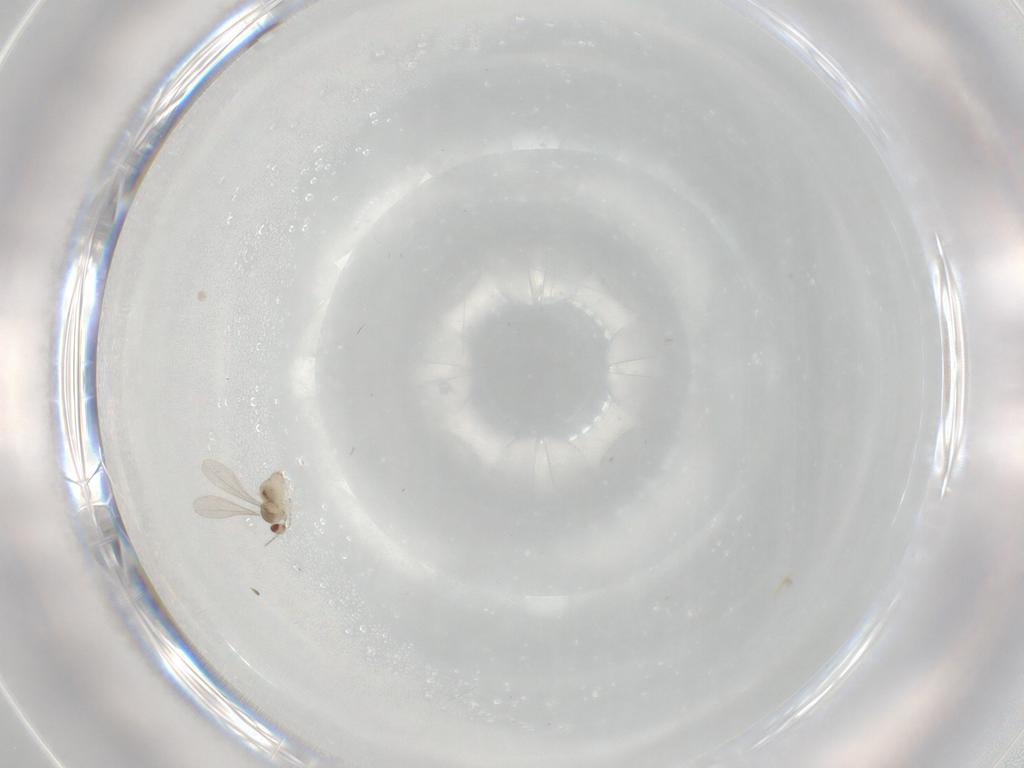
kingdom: Animalia
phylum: Arthropoda
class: Insecta
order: Diptera
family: Cecidomyiidae
